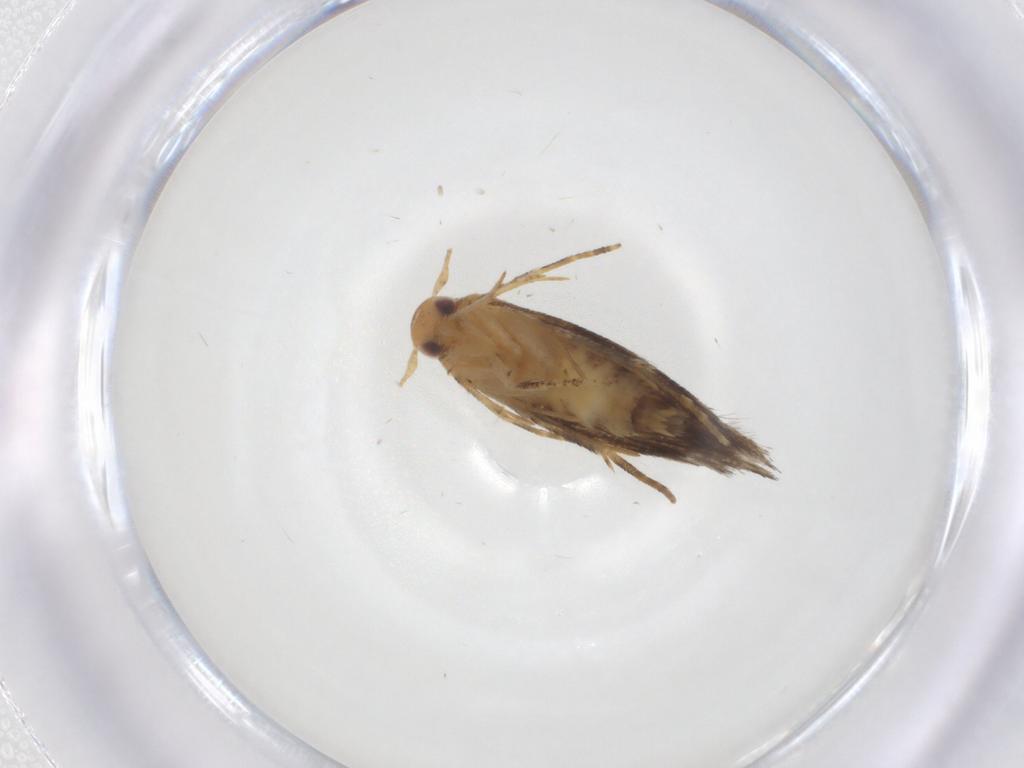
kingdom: Animalia
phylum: Arthropoda
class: Insecta
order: Lepidoptera
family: Momphidae
